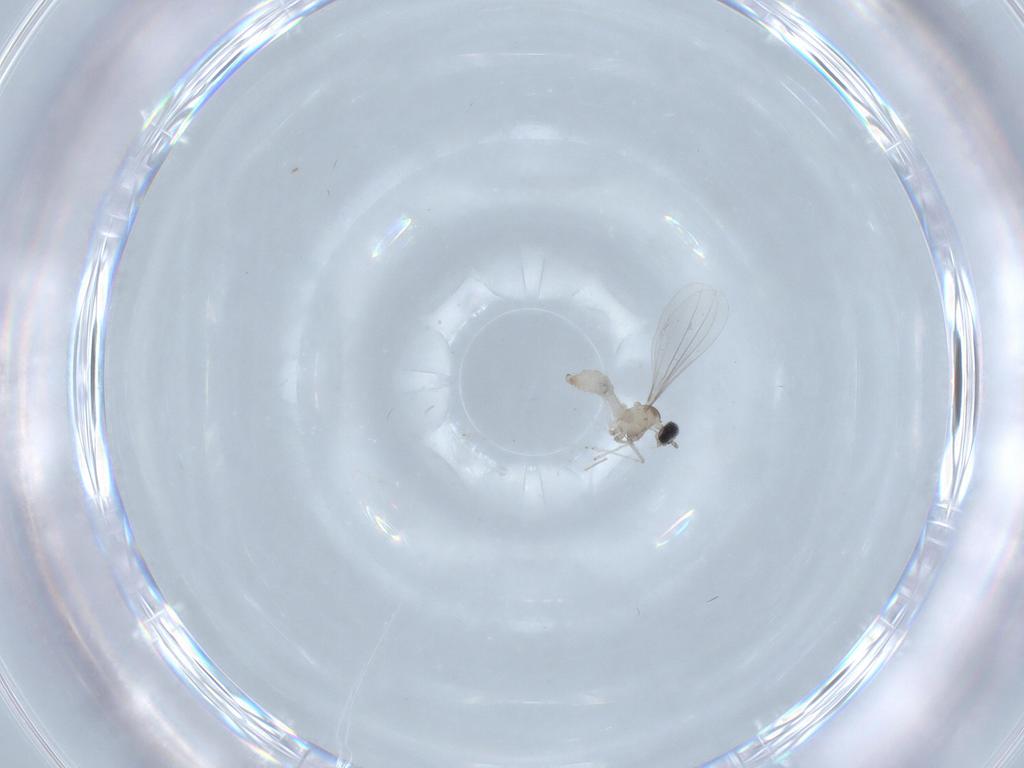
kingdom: Animalia
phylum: Arthropoda
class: Insecta
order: Diptera
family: Cecidomyiidae
